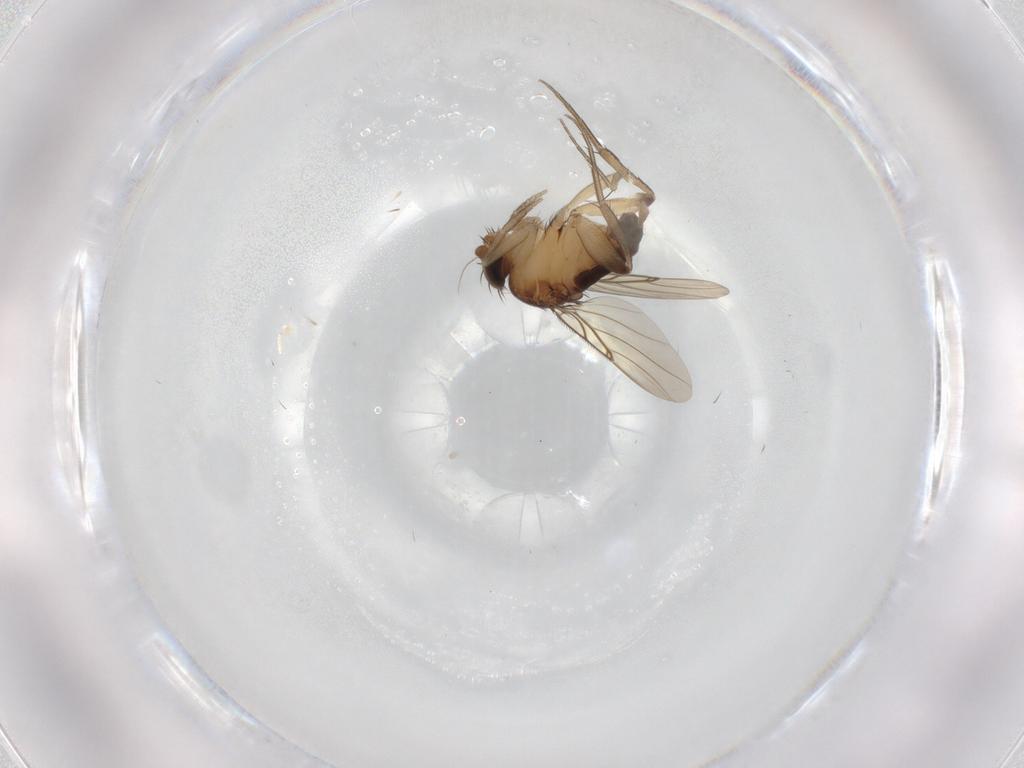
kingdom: Animalia
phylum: Arthropoda
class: Insecta
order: Diptera
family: Phoridae
